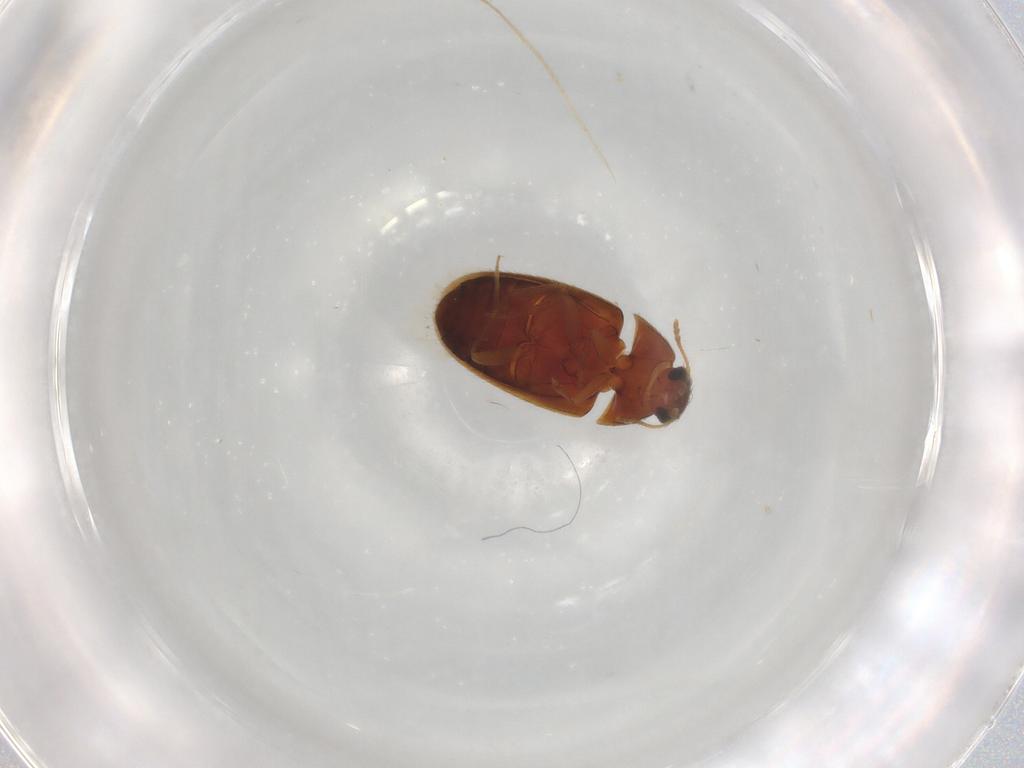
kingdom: Animalia
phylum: Arthropoda
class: Insecta
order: Coleoptera
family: Mycetophagidae
